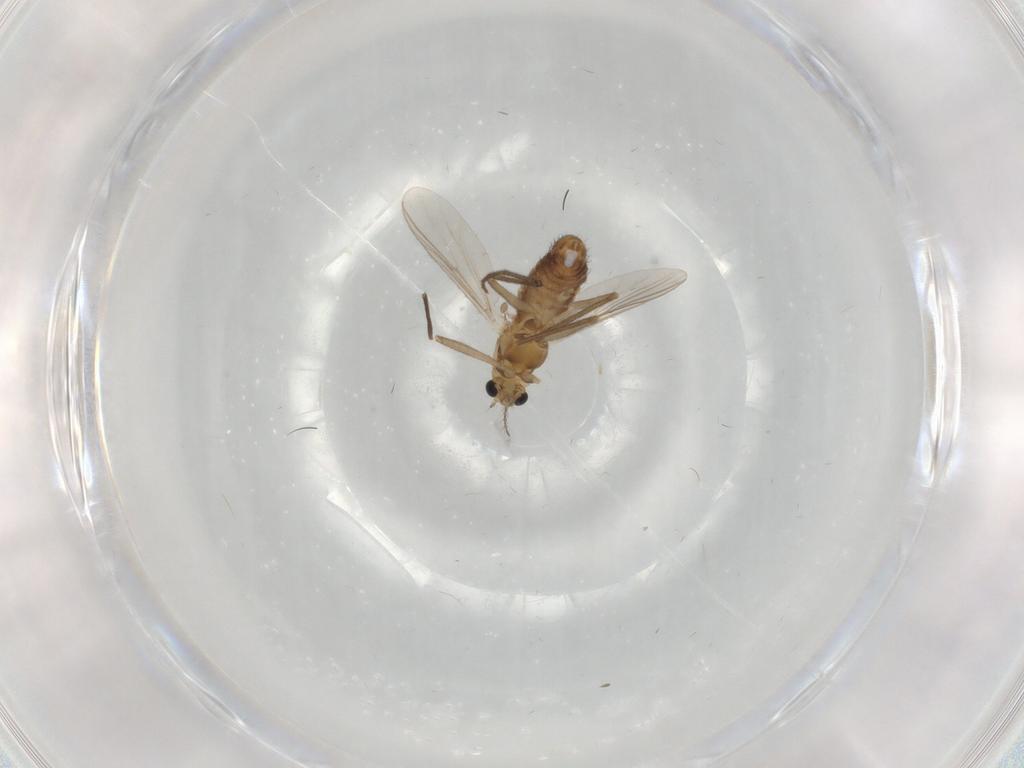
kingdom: Animalia
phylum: Arthropoda
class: Insecta
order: Diptera
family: Chironomidae
